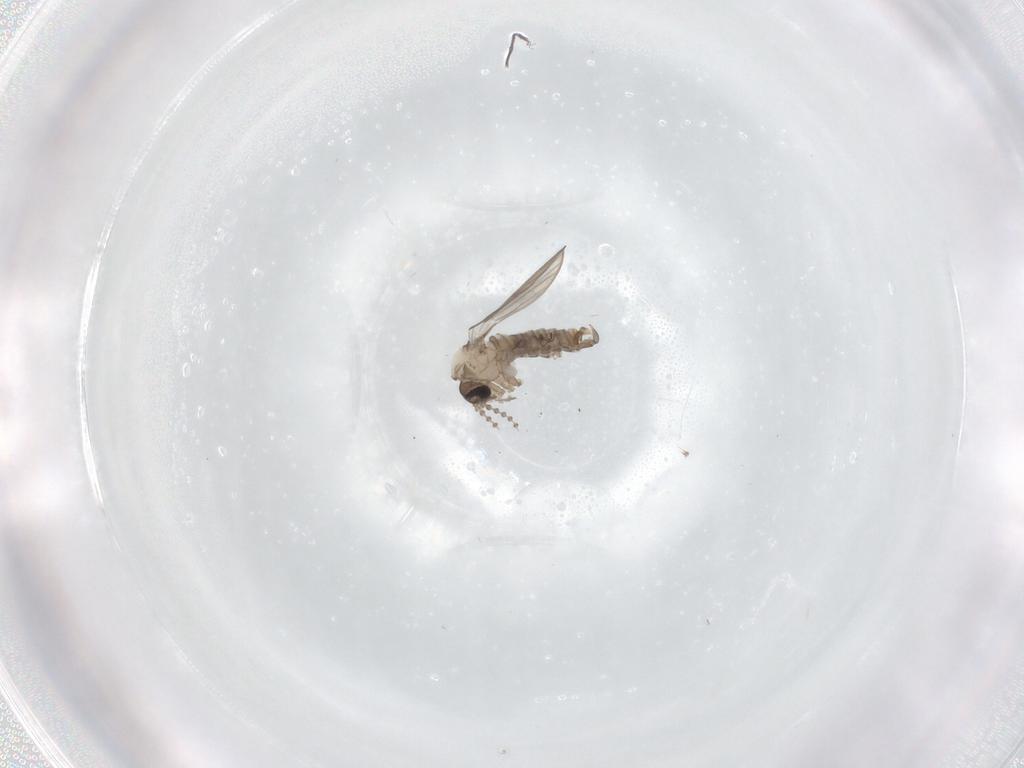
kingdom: Animalia
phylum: Arthropoda
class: Insecta
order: Diptera
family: Psychodidae
